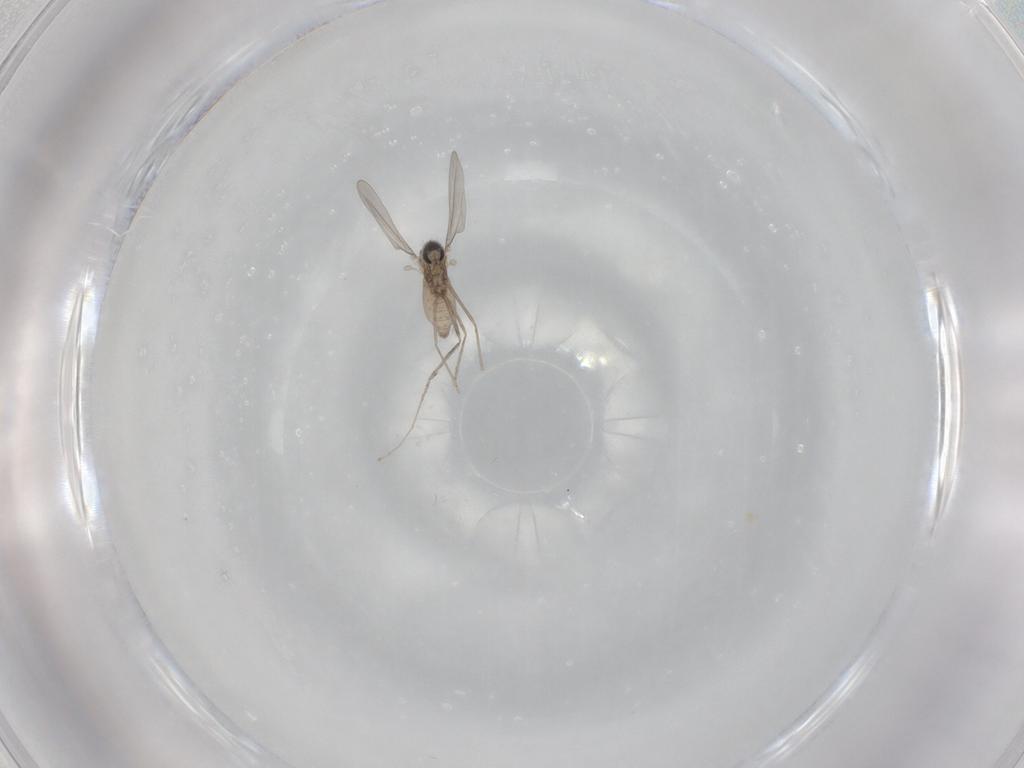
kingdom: Animalia
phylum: Arthropoda
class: Insecta
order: Diptera
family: Cecidomyiidae
